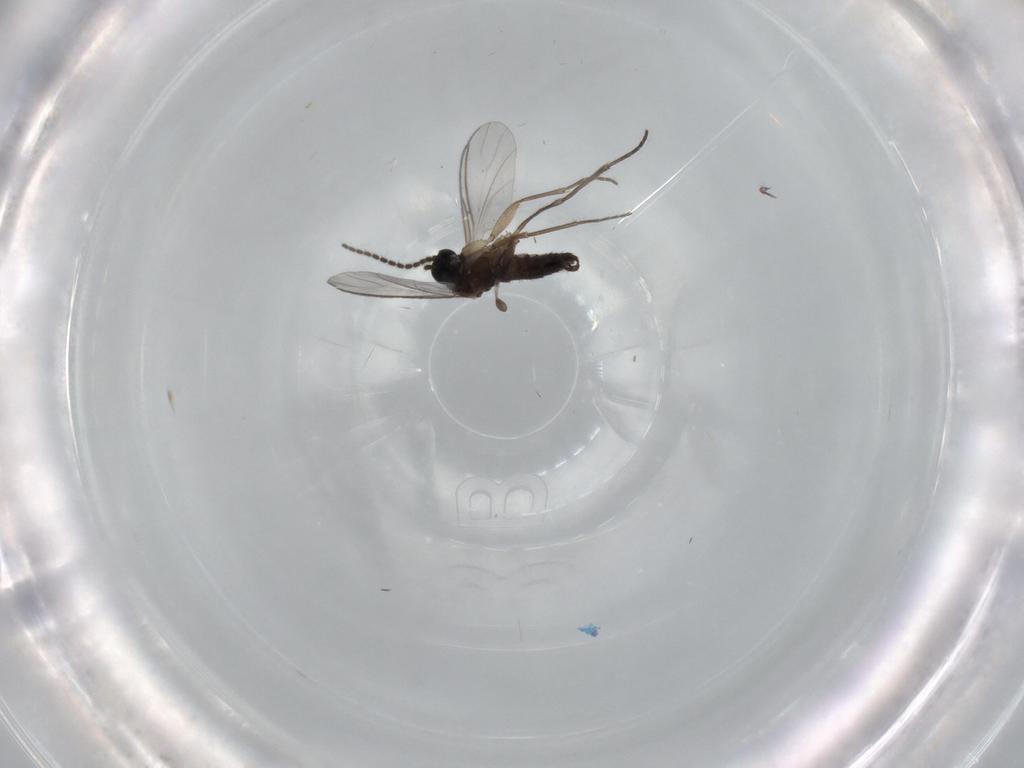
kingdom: Animalia
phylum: Arthropoda
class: Insecta
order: Diptera
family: Sciaridae
